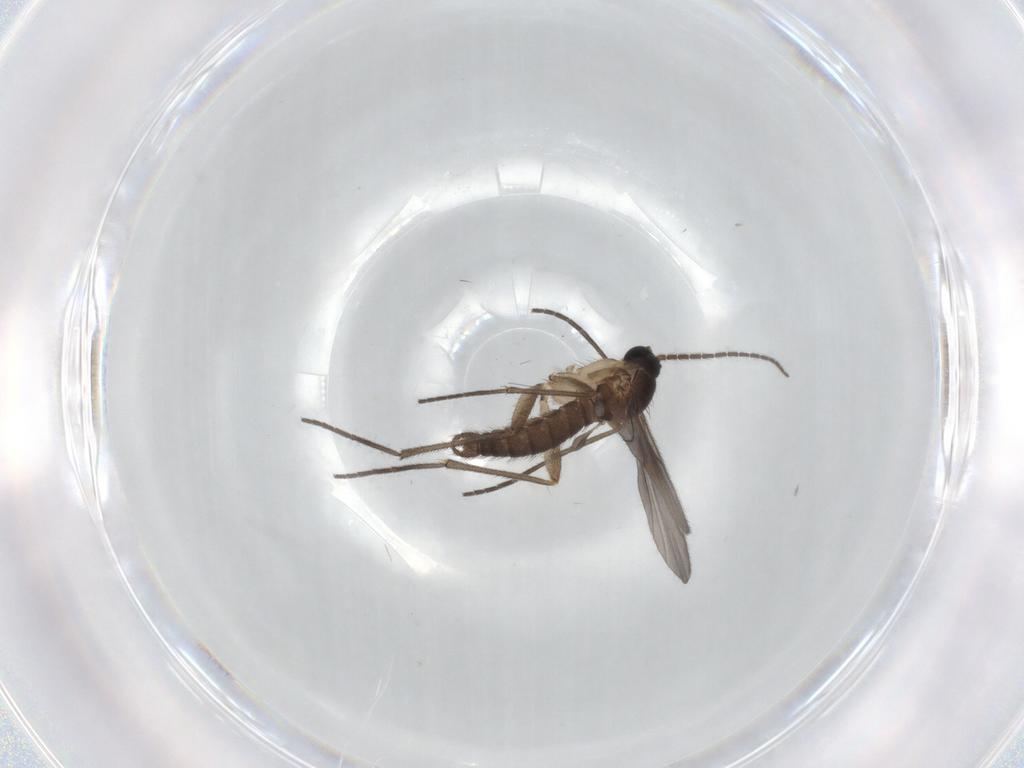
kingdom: Animalia
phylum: Arthropoda
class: Insecta
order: Diptera
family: Sciaridae
